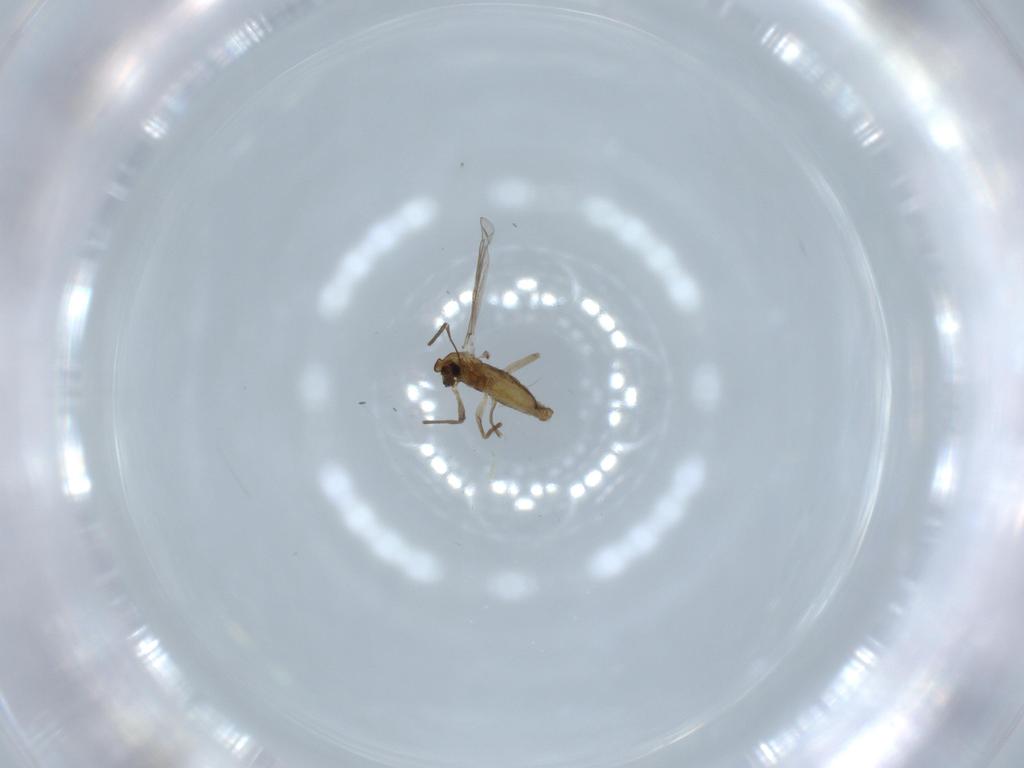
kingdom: Animalia
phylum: Arthropoda
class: Insecta
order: Diptera
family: Chironomidae
